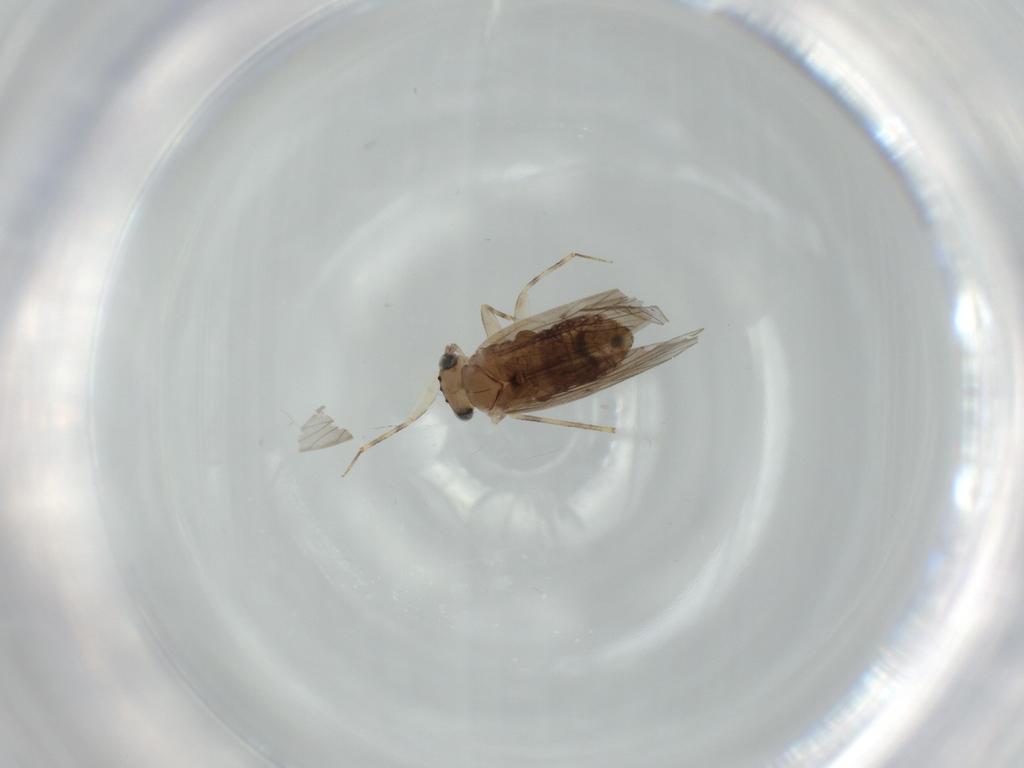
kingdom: Animalia
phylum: Arthropoda
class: Insecta
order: Psocodea
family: Lepidopsocidae
